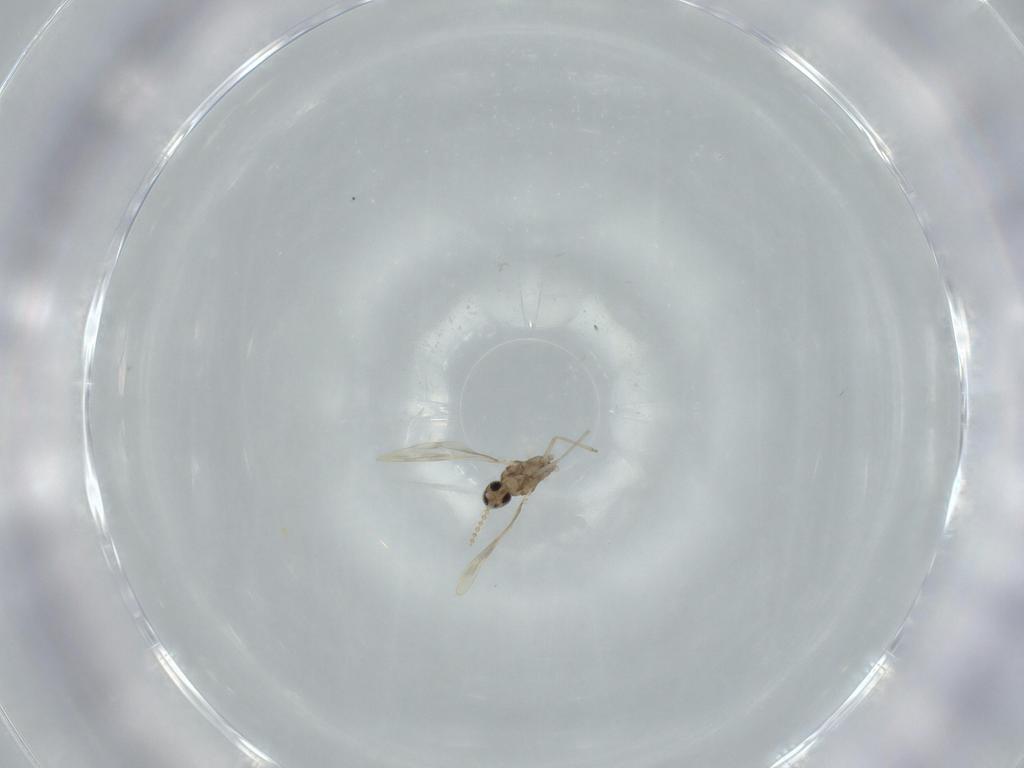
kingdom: Animalia
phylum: Arthropoda
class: Insecta
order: Diptera
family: Cecidomyiidae
